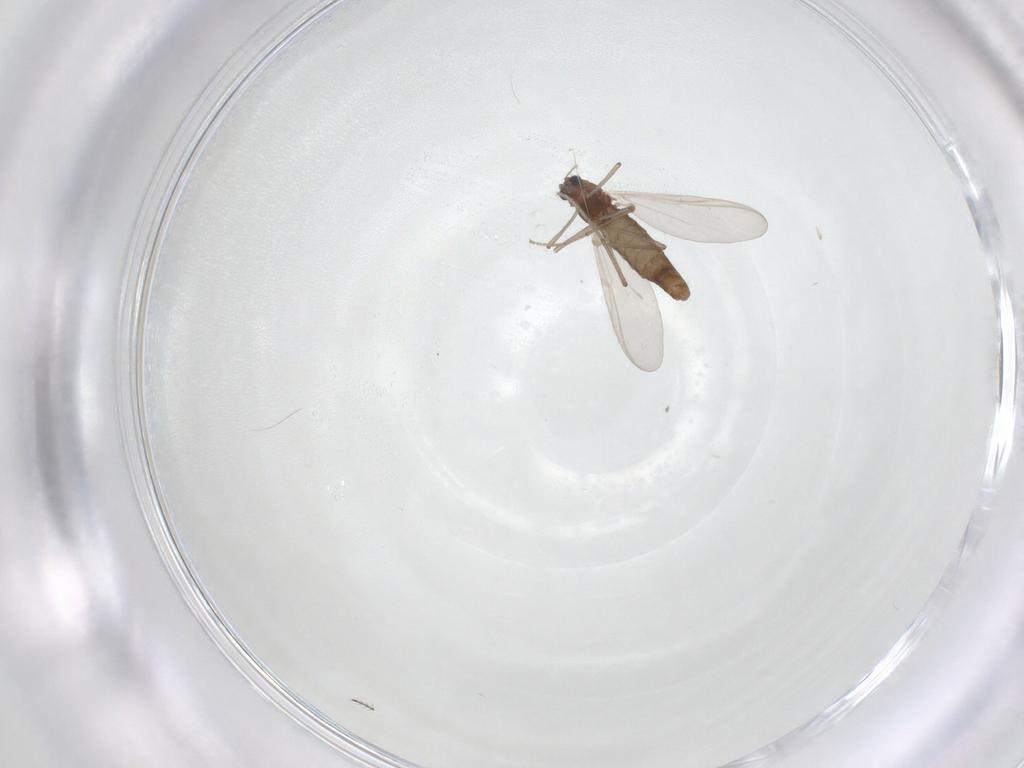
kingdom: Animalia
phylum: Arthropoda
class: Insecta
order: Diptera
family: Chironomidae
